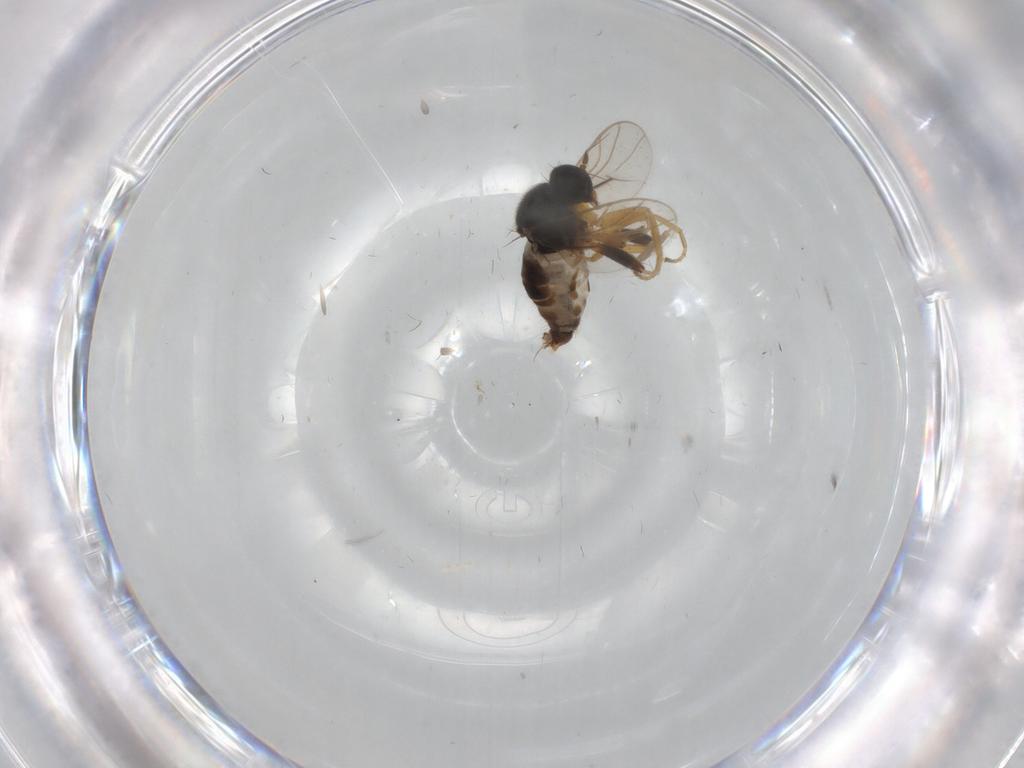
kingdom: Animalia
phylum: Arthropoda
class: Insecta
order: Diptera
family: Hybotidae
